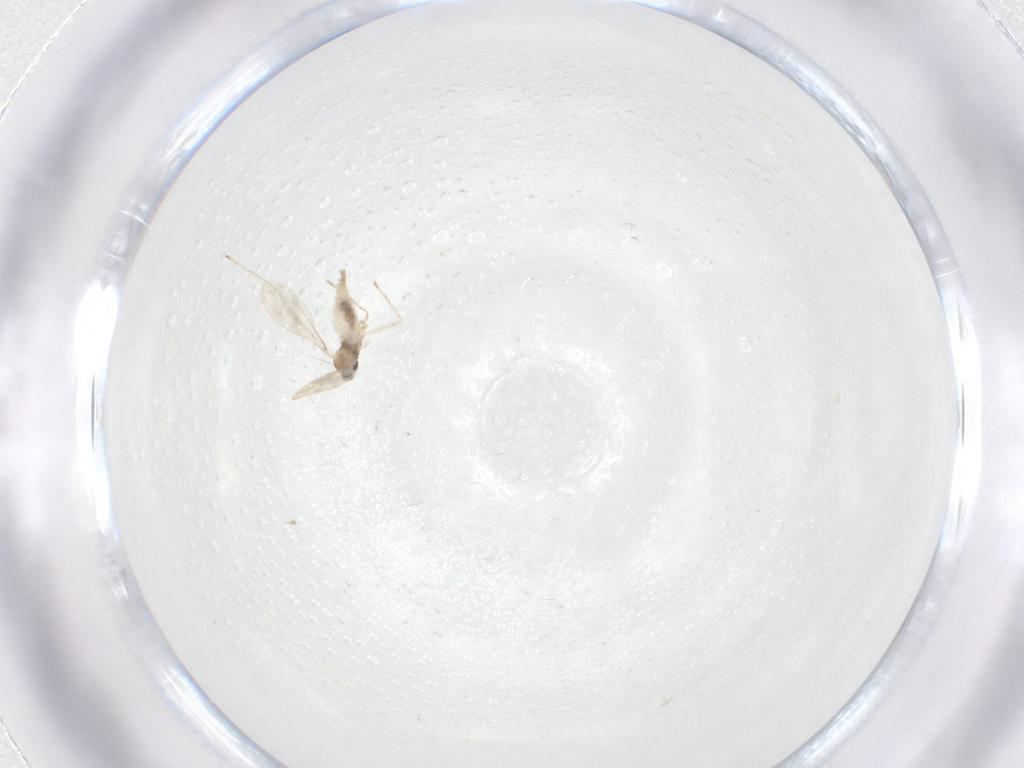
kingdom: Animalia
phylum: Arthropoda
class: Insecta
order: Diptera
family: Cecidomyiidae
